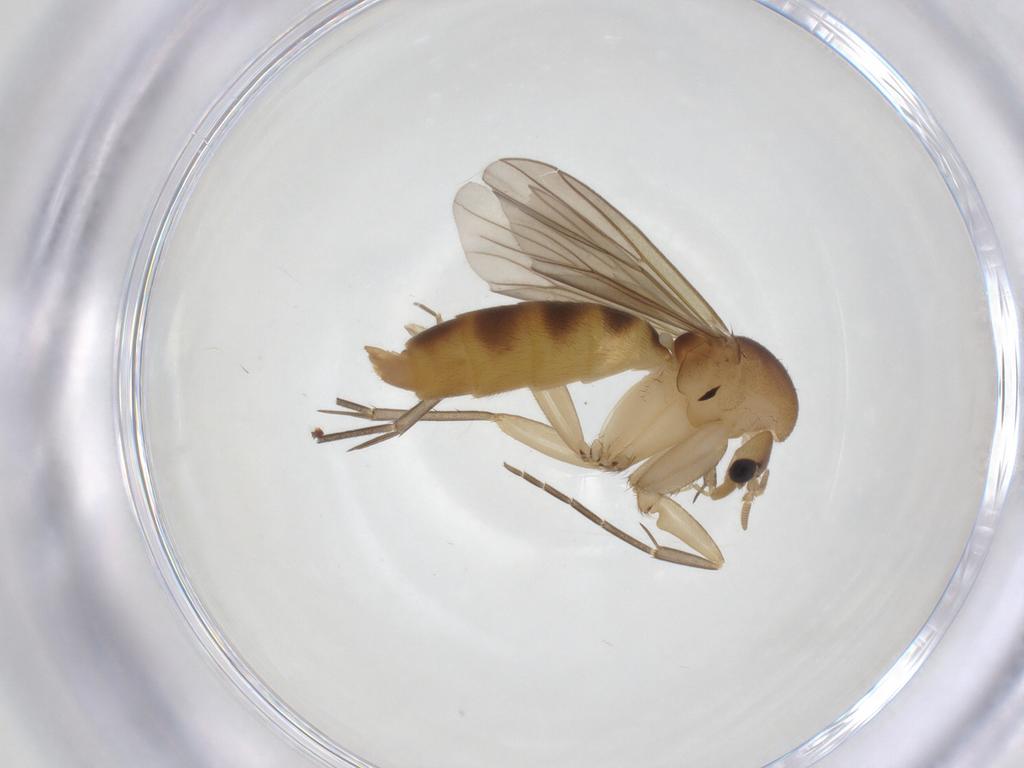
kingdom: Animalia
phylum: Arthropoda
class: Insecta
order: Diptera
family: Mycetophilidae
